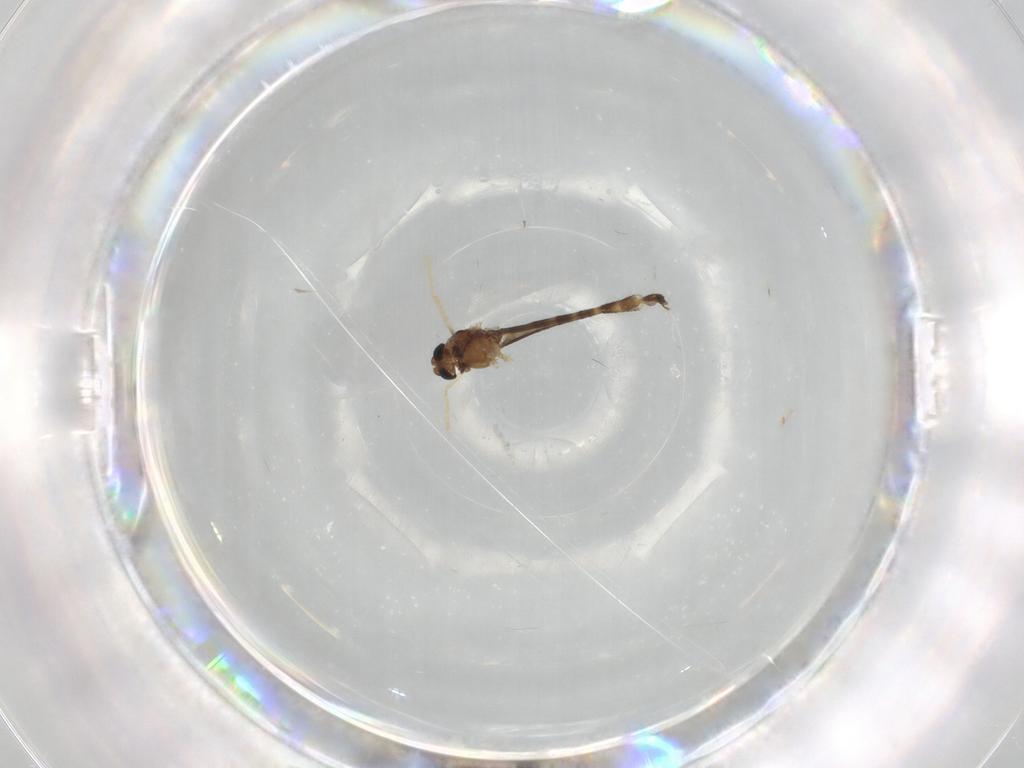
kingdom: Animalia
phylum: Arthropoda
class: Insecta
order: Diptera
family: Chironomidae
